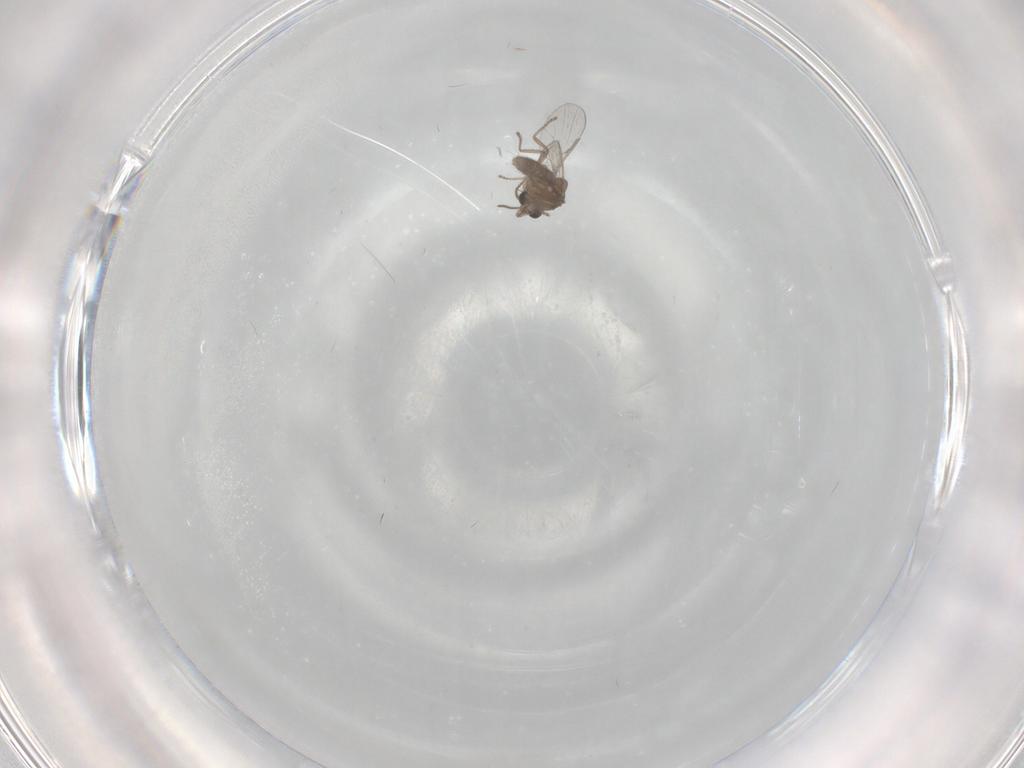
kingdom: Animalia
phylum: Arthropoda
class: Insecta
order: Diptera
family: Ceratopogonidae
